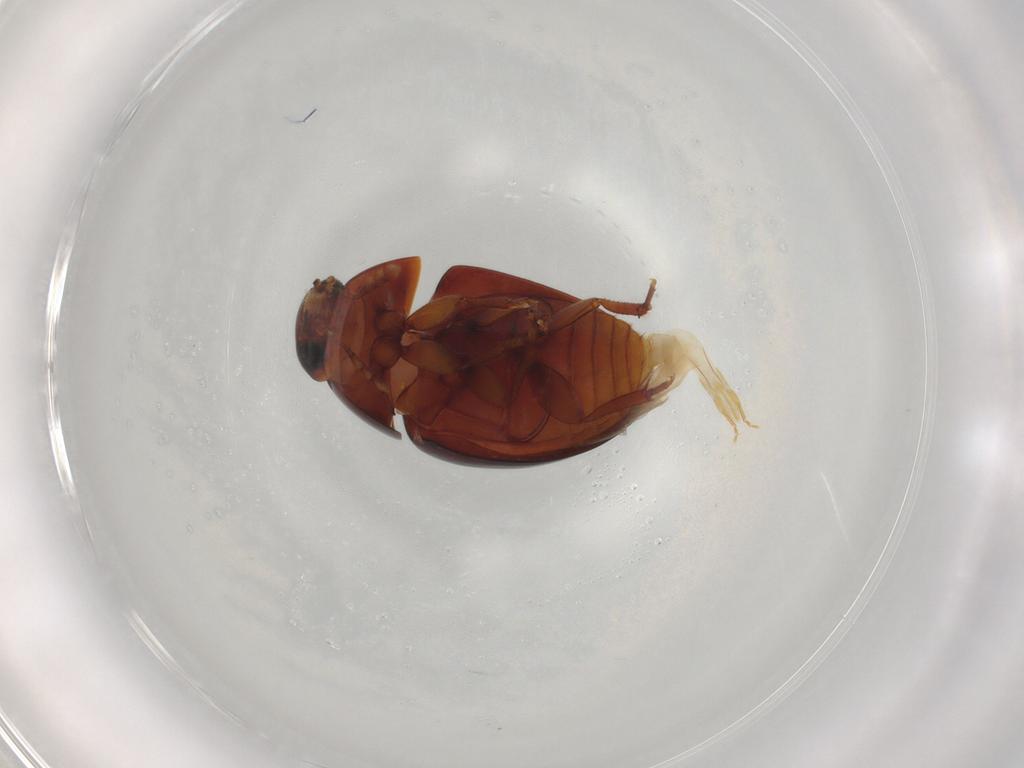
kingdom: Animalia
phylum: Arthropoda
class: Insecta
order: Coleoptera
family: Phalacridae
